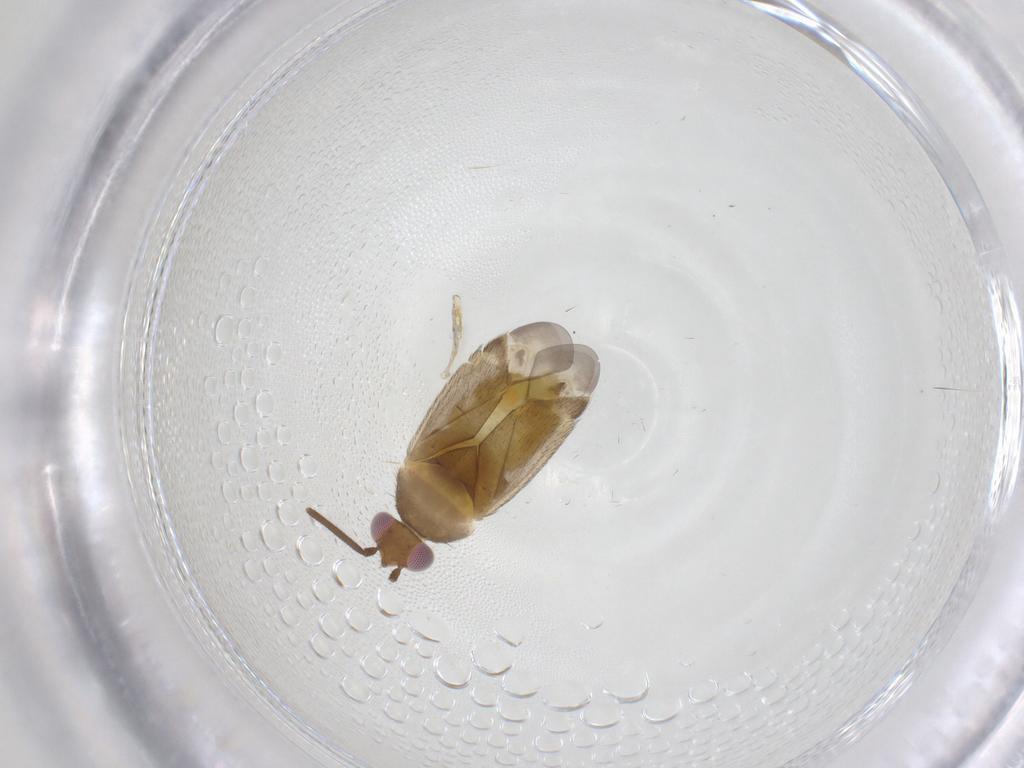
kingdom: Animalia
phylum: Arthropoda
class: Insecta
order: Hemiptera
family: Miridae
